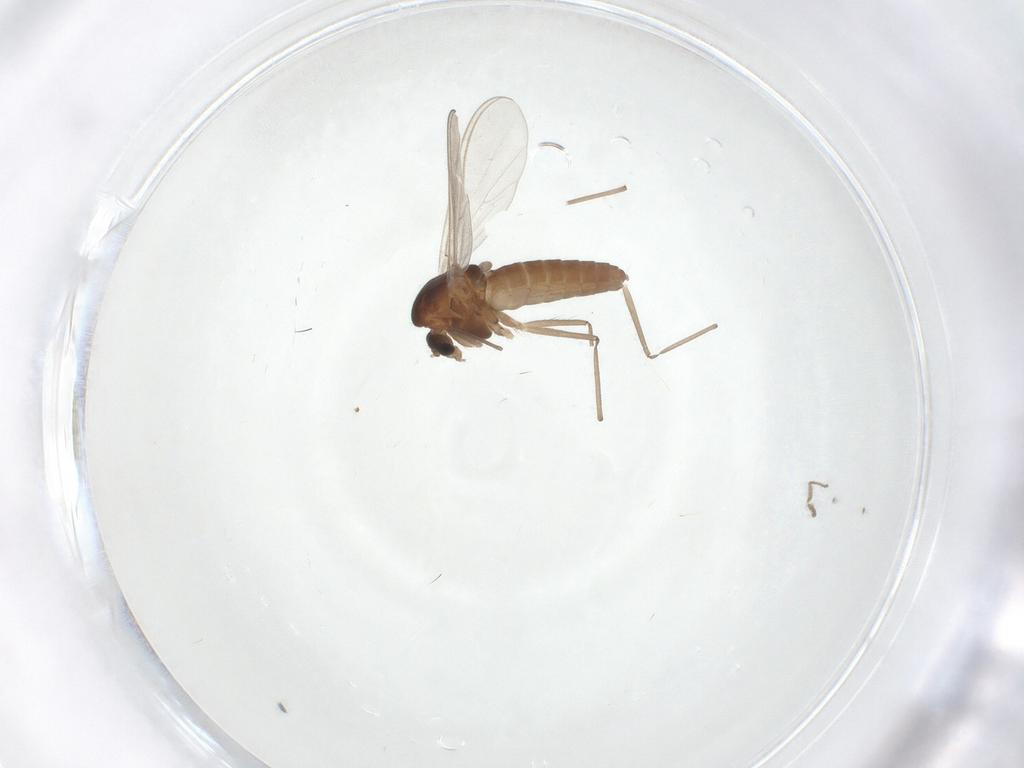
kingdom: Animalia
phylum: Arthropoda
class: Insecta
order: Diptera
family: Chironomidae
